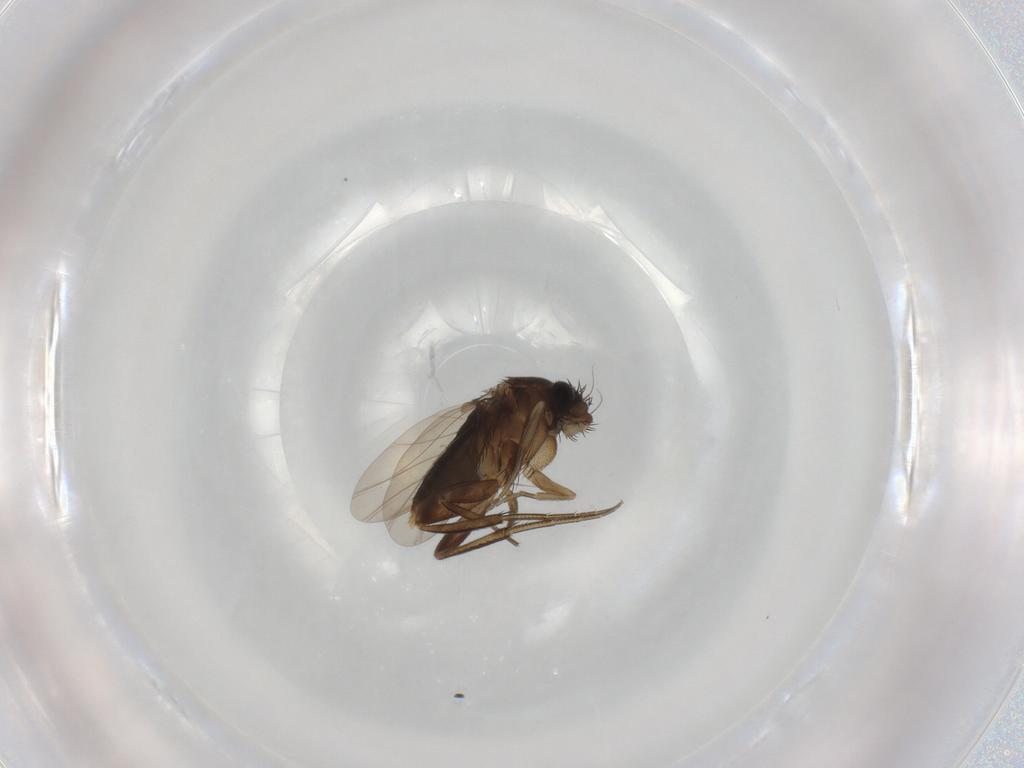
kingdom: Animalia
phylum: Arthropoda
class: Insecta
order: Diptera
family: Phoridae
